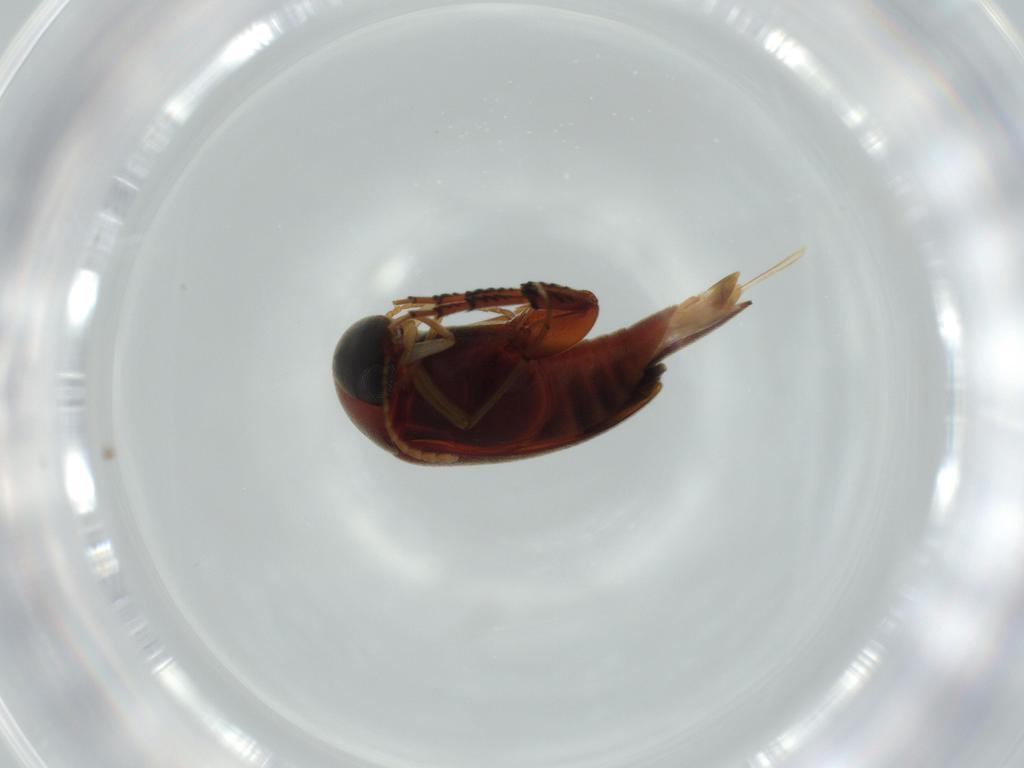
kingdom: Animalia
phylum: Arthropoda
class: Insecta
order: Coleoptera
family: Mordellidae
